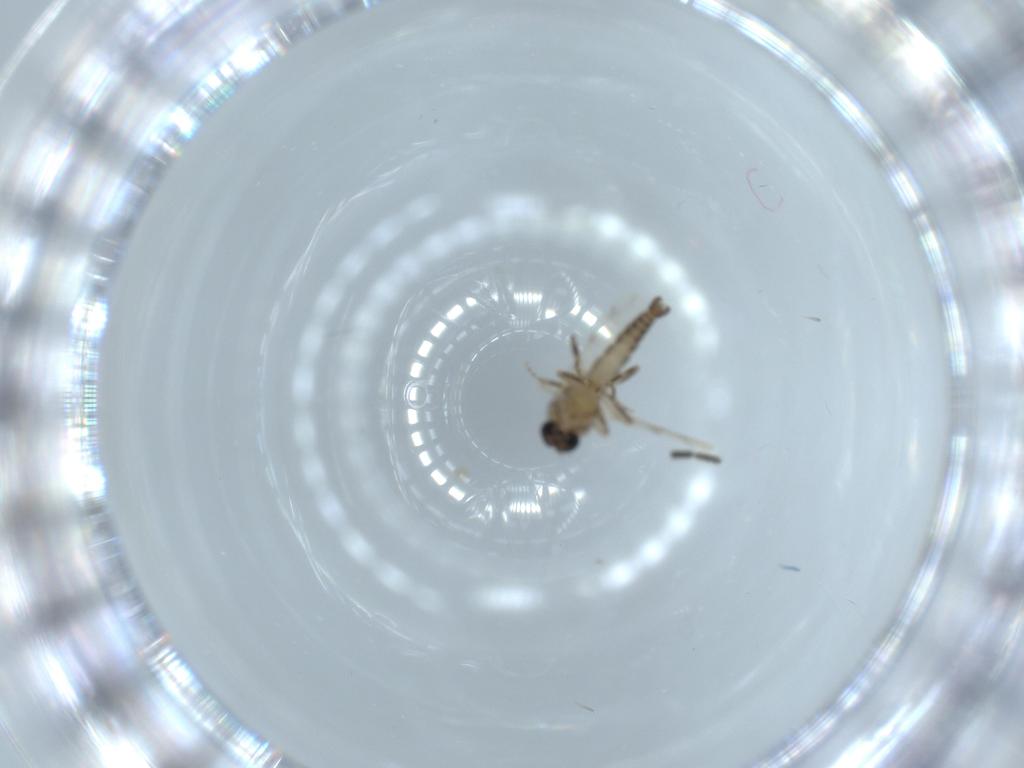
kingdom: Animalia
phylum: Arthropoda
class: Insecta
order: Diptera
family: Ceratopogonidae
